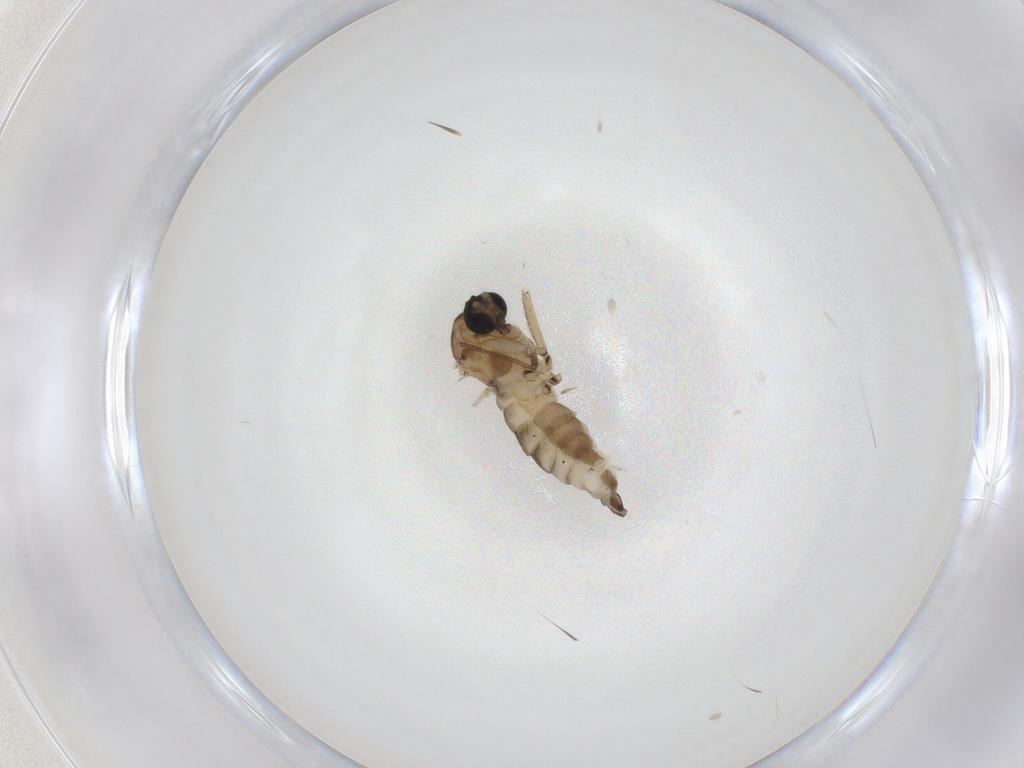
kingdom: Animalia
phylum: Arthropoda
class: Insecta
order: Diptera
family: Sciaridae
